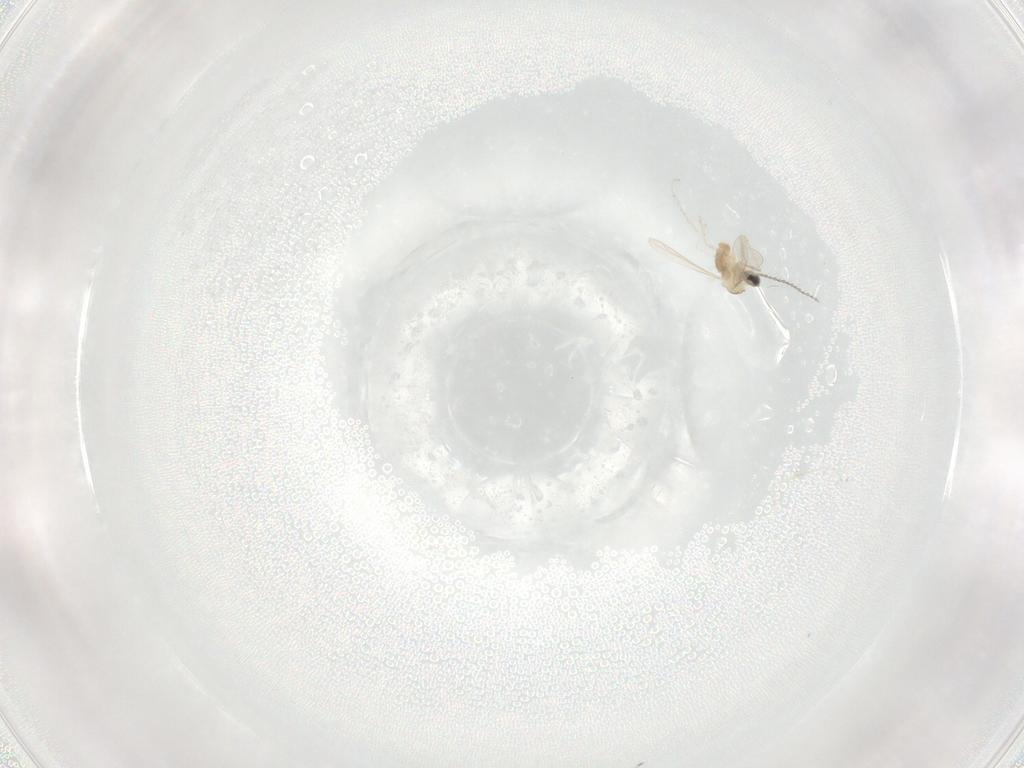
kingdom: Animalia
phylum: Arthropoda
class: Insecta
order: Diptera
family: Cecidomyiidae
